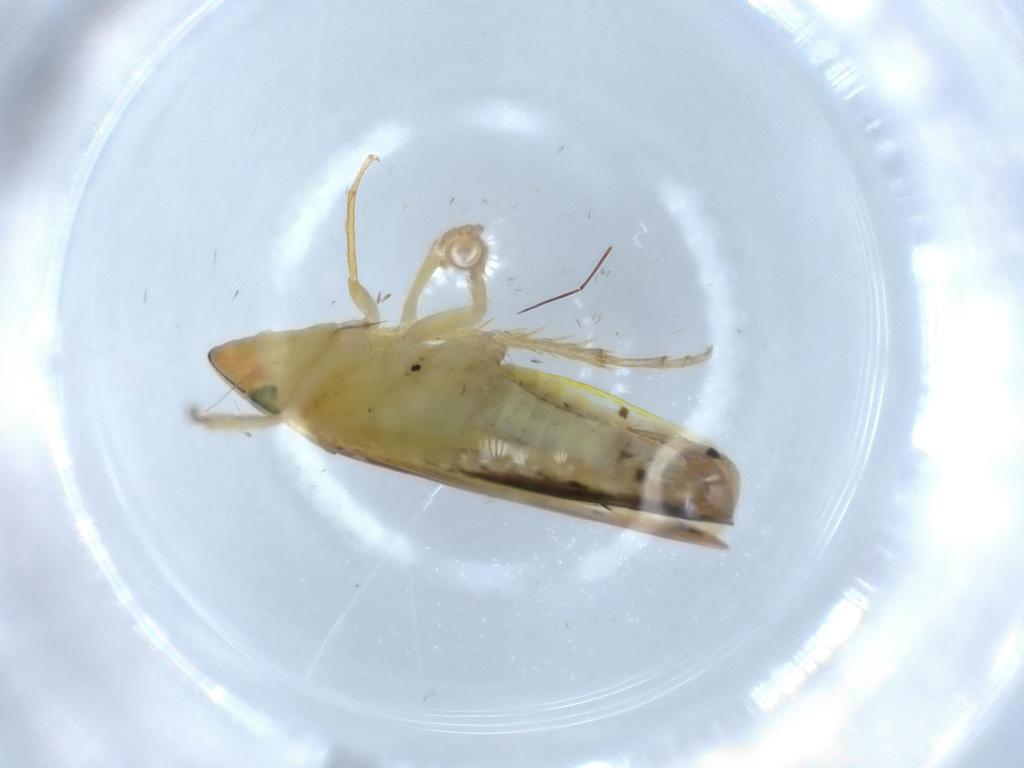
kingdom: Animalia
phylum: Arthropoda
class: Insecta
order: Hemiptera
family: Cicadellidae
